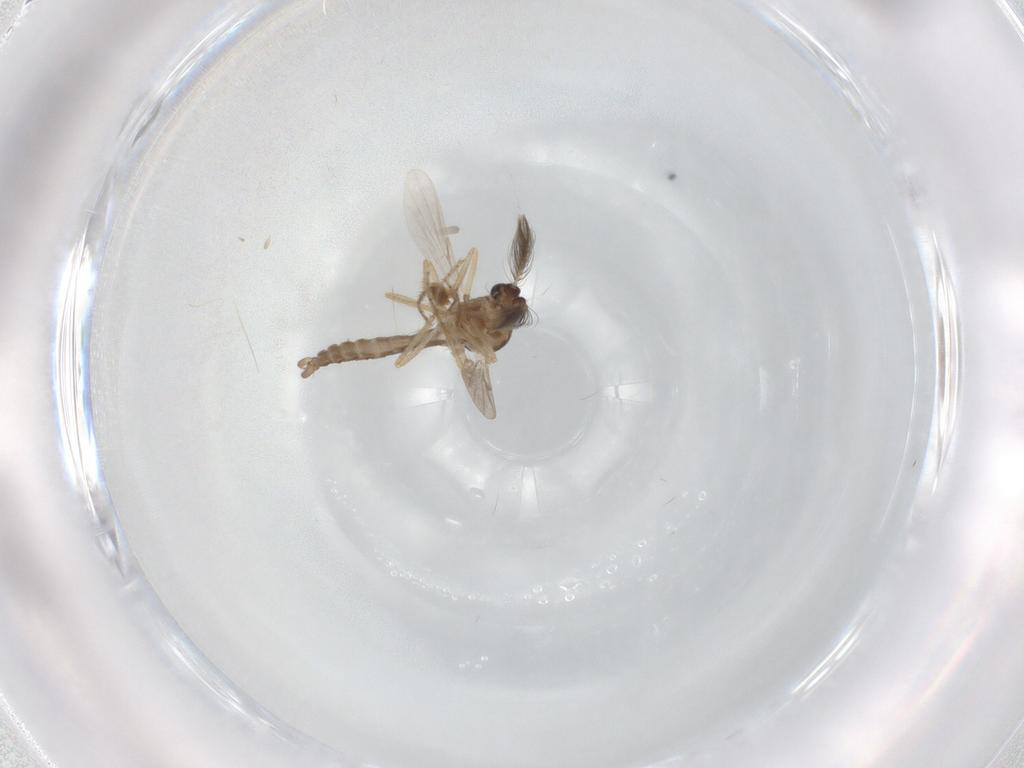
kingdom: Animalia
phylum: Arthropoda
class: Insecta
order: Diptera
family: Ceratopogonidae
